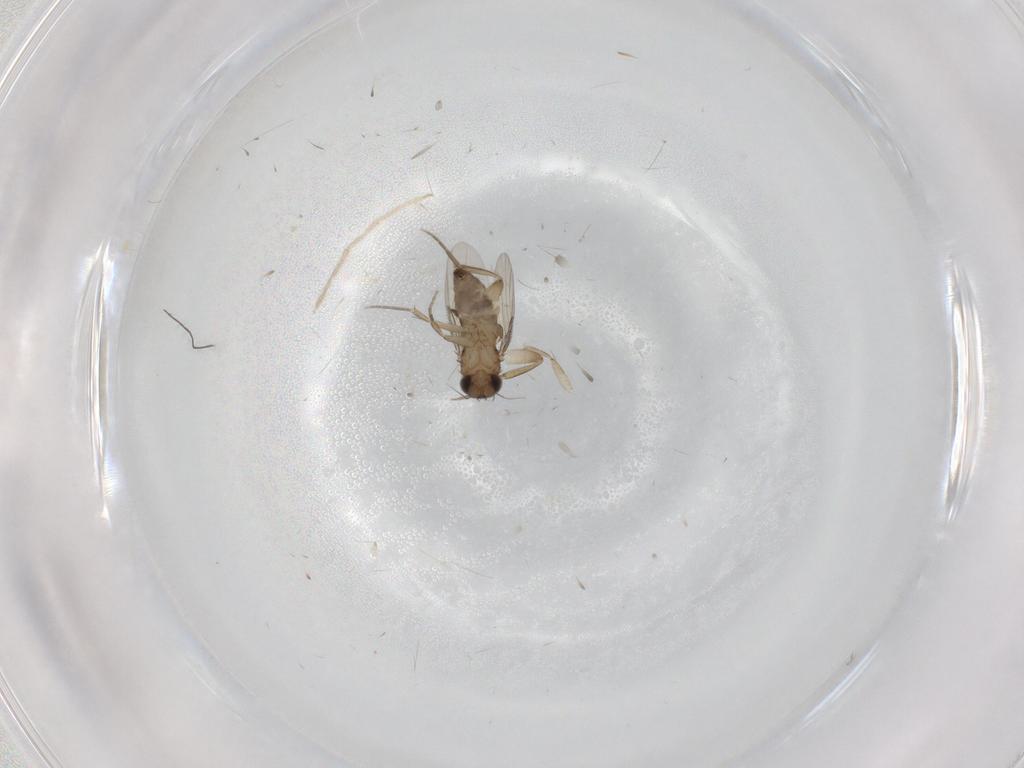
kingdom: Animalia
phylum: Arthropoda
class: Insecta
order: Diptera
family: Phoridae
